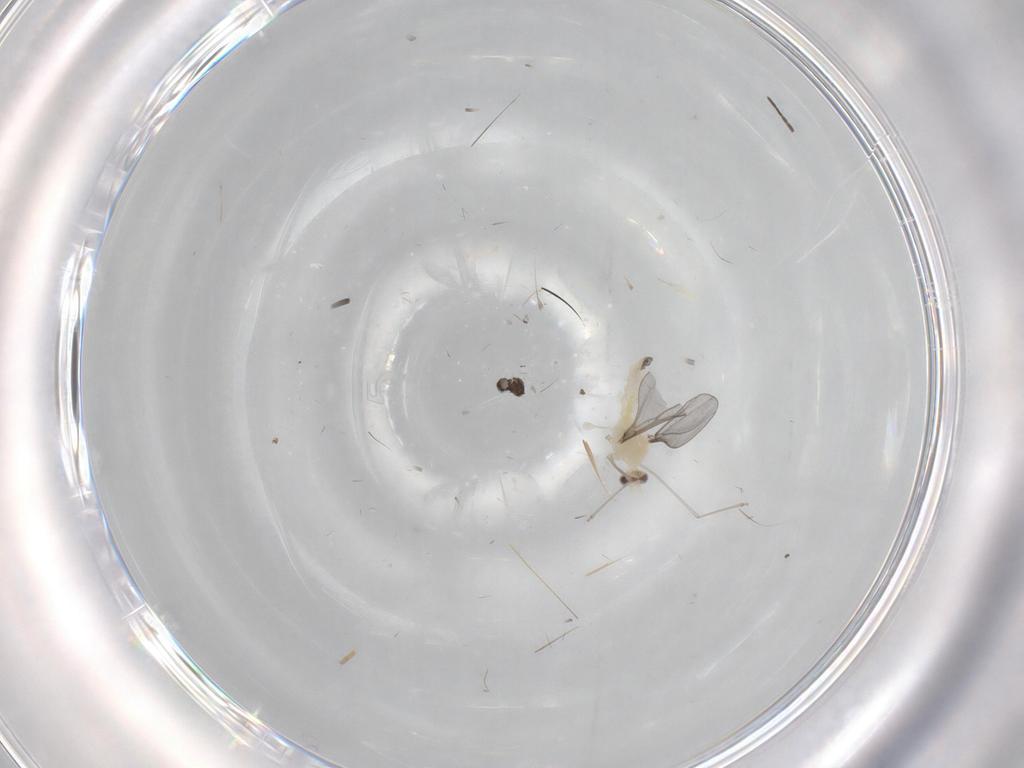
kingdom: Animalia
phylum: Arthropoda
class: Insecta
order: Diptera
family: Cecidomyiidae
